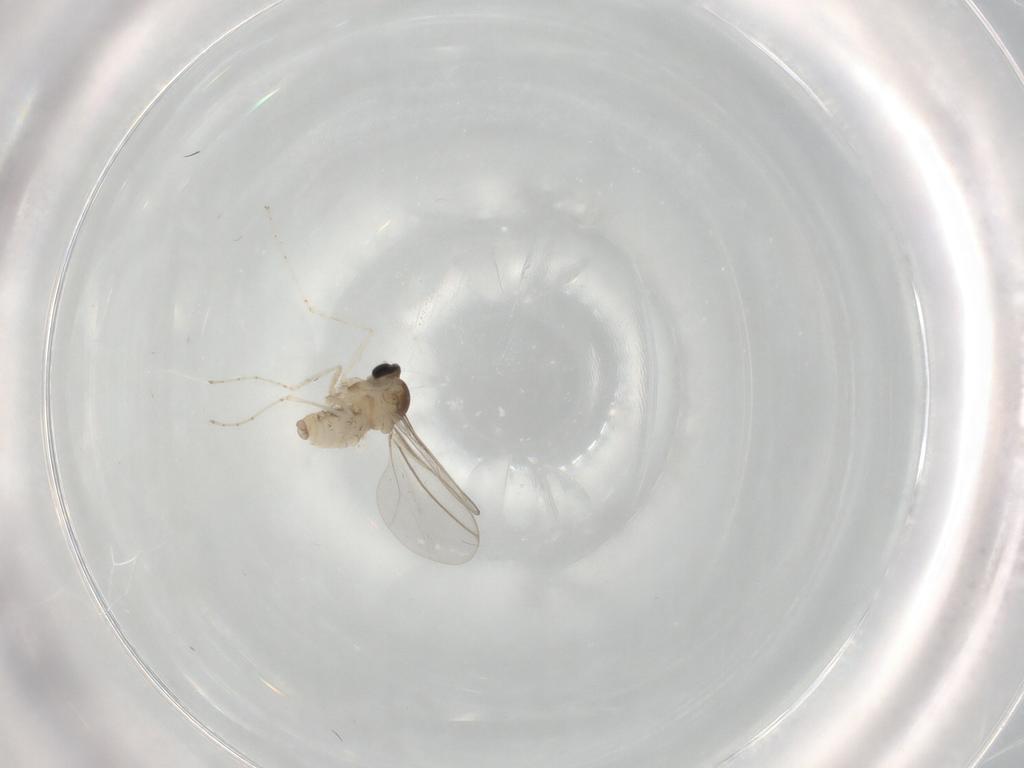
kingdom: Animalia
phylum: Arthropoda
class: Insecta
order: Diptera
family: Cecidomyiidae
